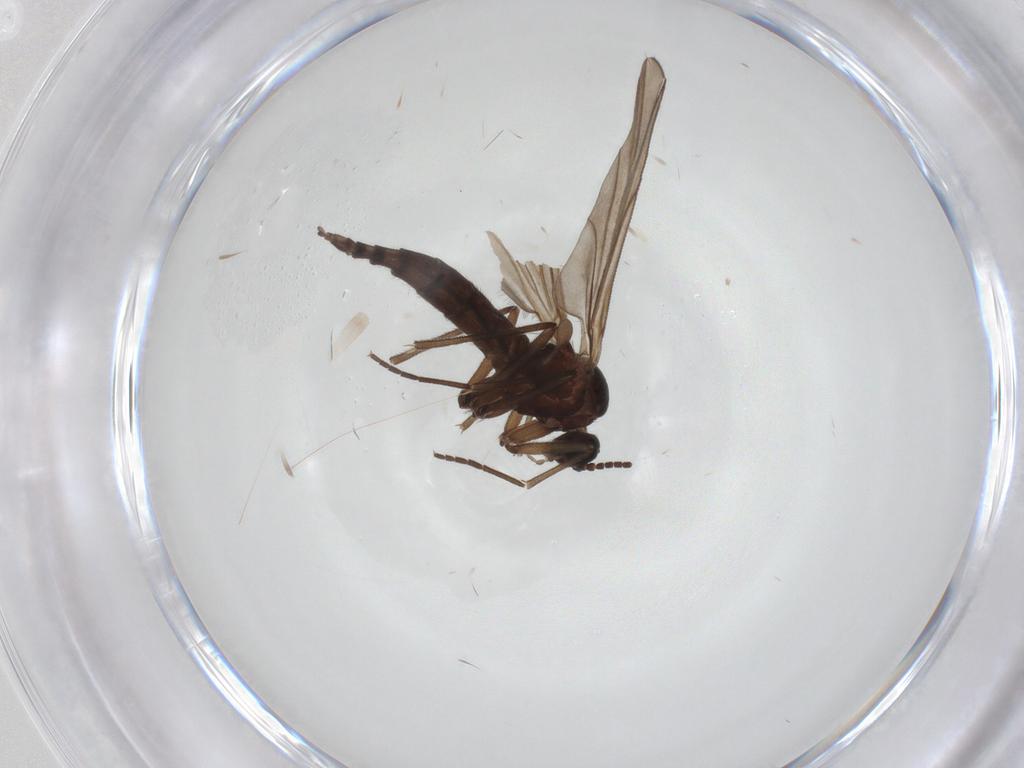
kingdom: Animalia
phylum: Arthropoda
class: Insecta
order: Diptera
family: Sciaridae
